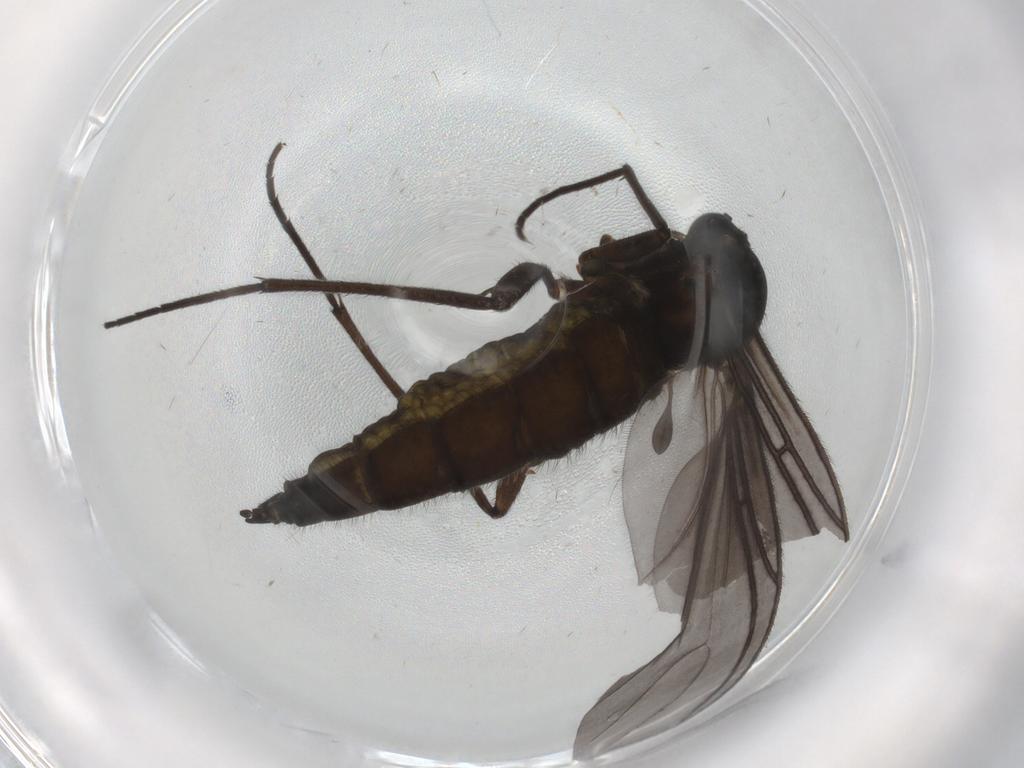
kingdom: Animalia
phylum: Arthropoda
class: Insecta
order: Diptera
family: Sciaridae
